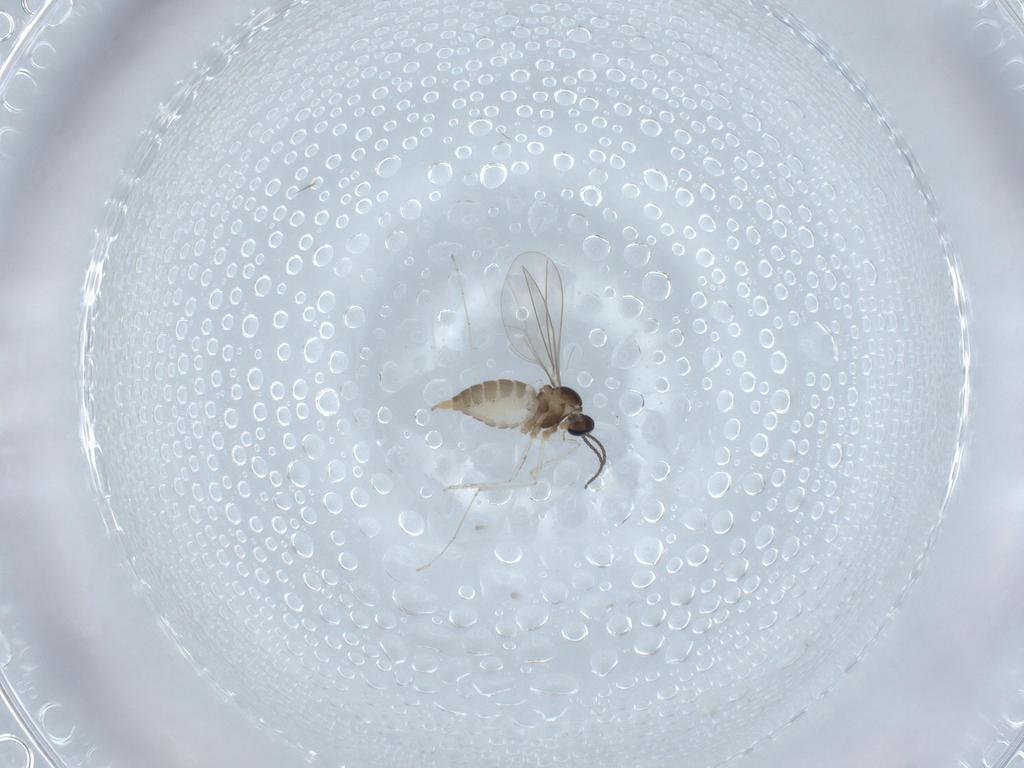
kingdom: Animalia
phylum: Arthropoda
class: Insecta
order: Diptera
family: Cecidomyiidae
